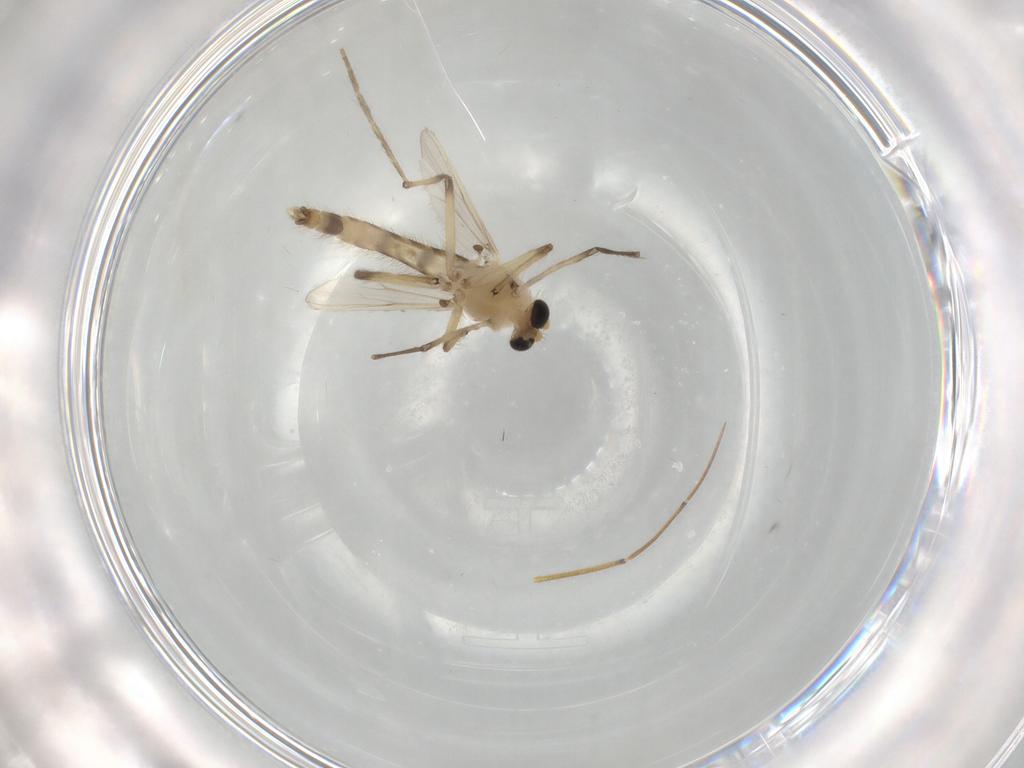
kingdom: Animalia
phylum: Arthropoda
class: Insecta
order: Diptera
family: Chironomidae
